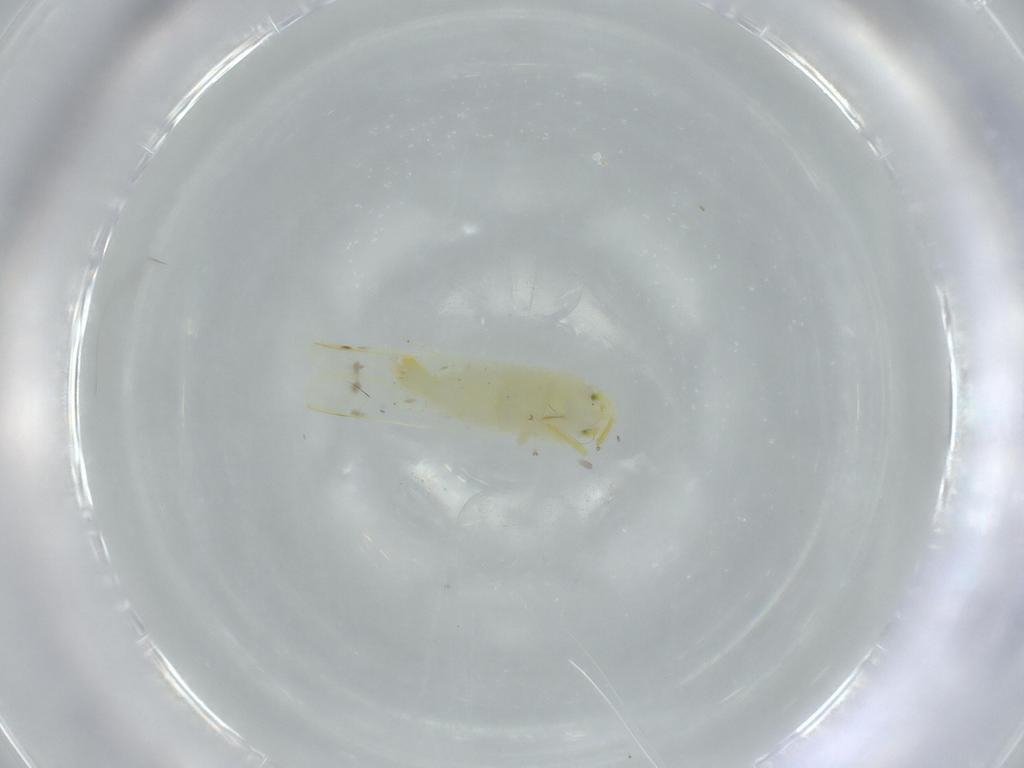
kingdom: Animalia
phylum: Arthropoda
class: Insecta
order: Hemiptera
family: Cicadellidae
